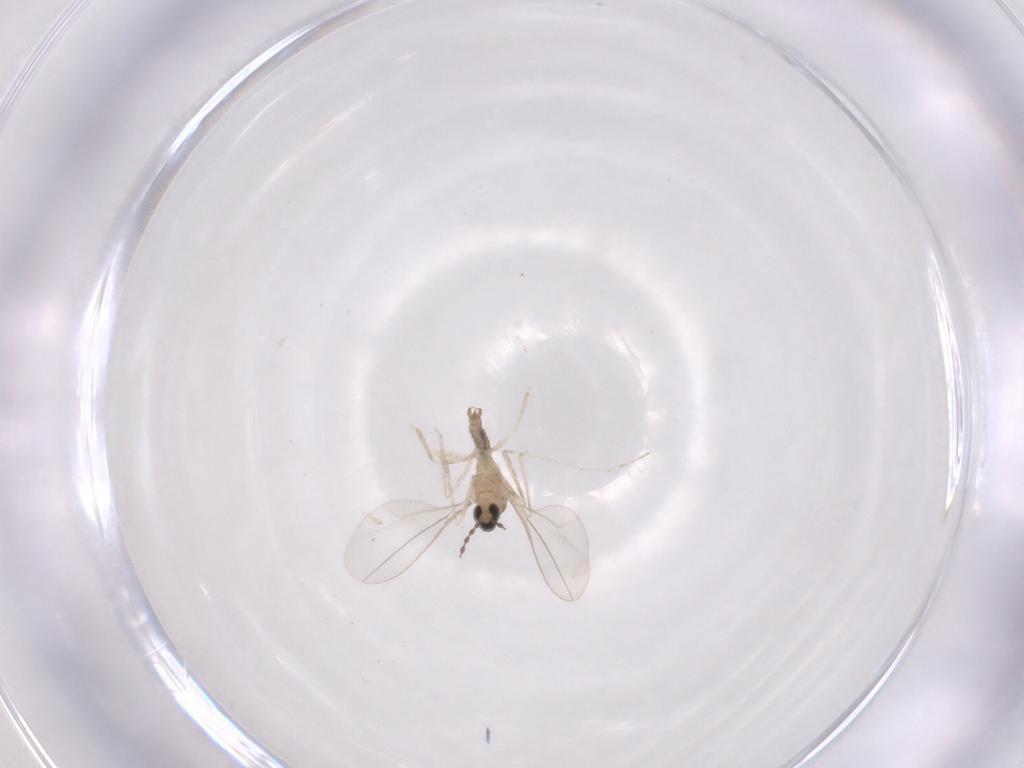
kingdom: Animalia
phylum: Arthropoda
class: Insecta
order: Diptera
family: Cecidomyiidae
